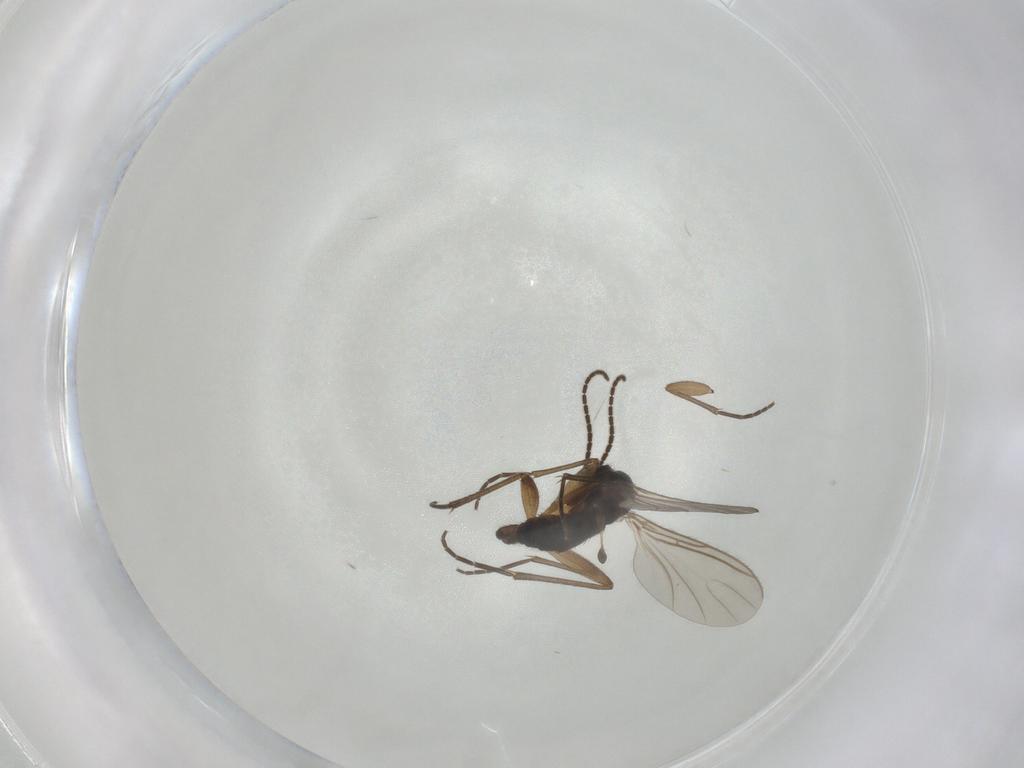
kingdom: Animalia
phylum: Arthropoda
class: Insecta
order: Diptera
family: Sciaridae
